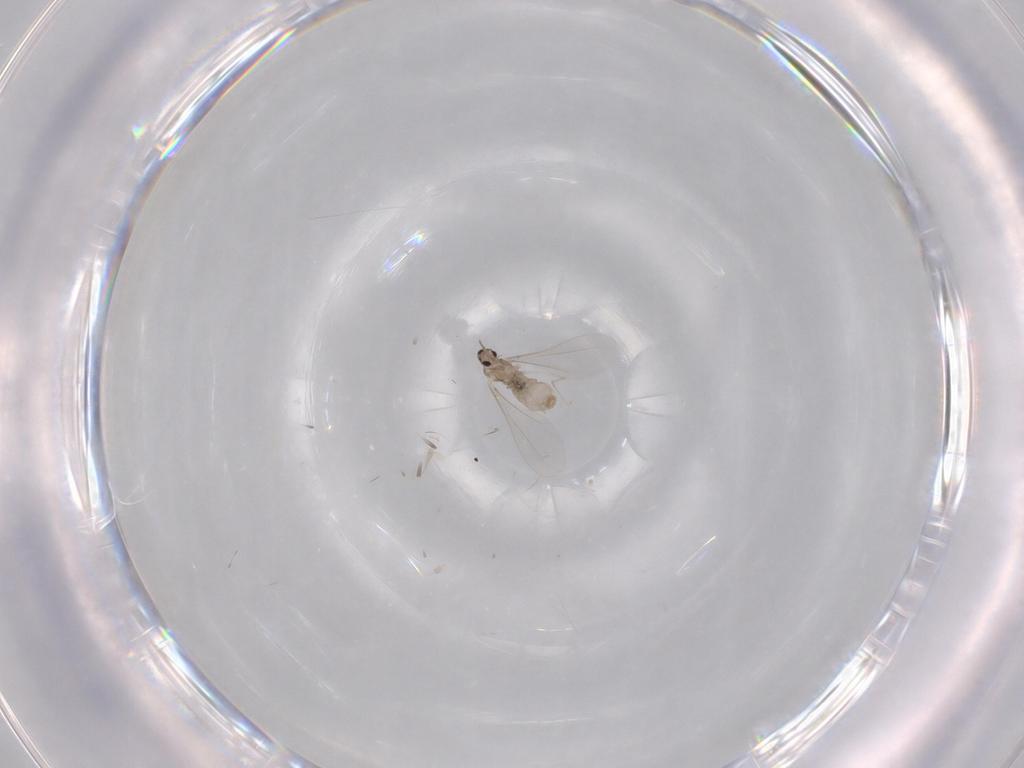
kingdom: Animalia
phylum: Arthropoda
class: Insecta
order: Diptera
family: Cecidomyiidae
